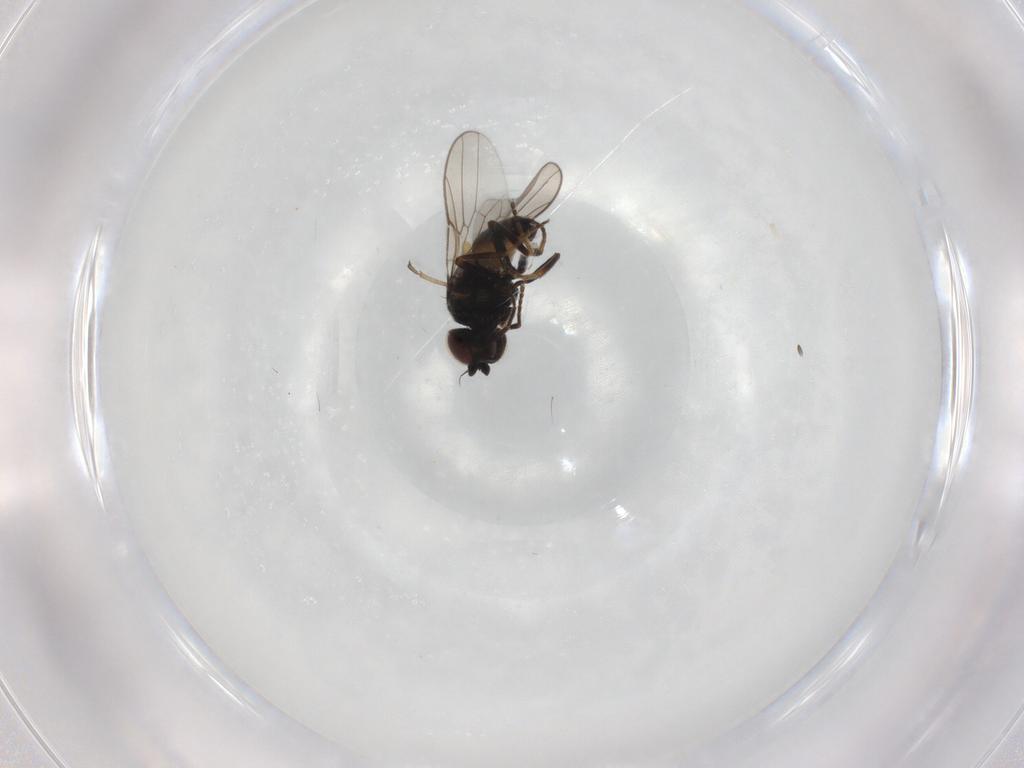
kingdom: Animalia
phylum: Arthropoda
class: Insecta
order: Diptera
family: Chloropidae
